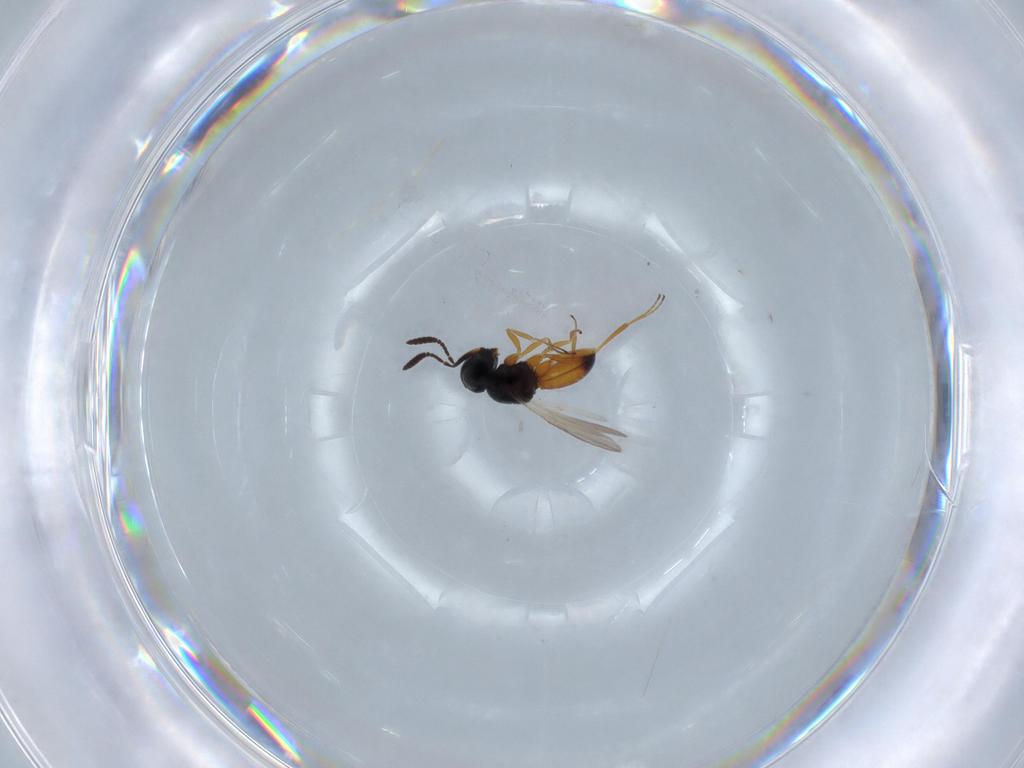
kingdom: Animalia
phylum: Arthropoda
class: Insecta
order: Hymenoptera
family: Scelionidae
